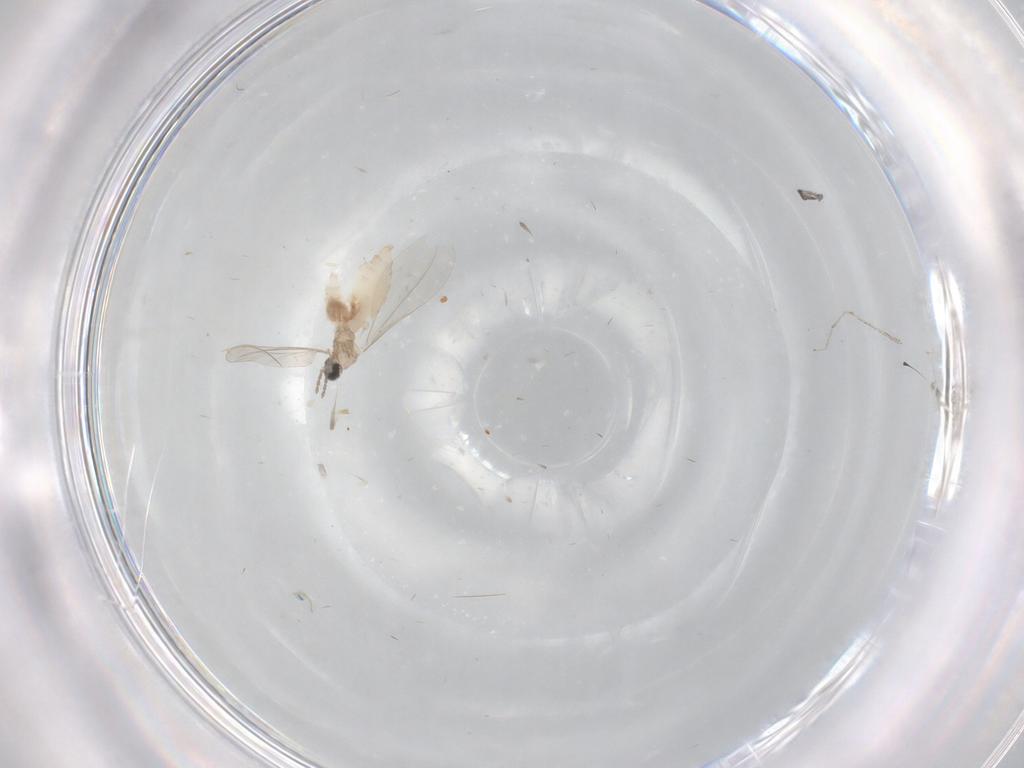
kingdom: Animalia
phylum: Arthropoda
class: Insecta
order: Diptera
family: Cecidomyiidae
